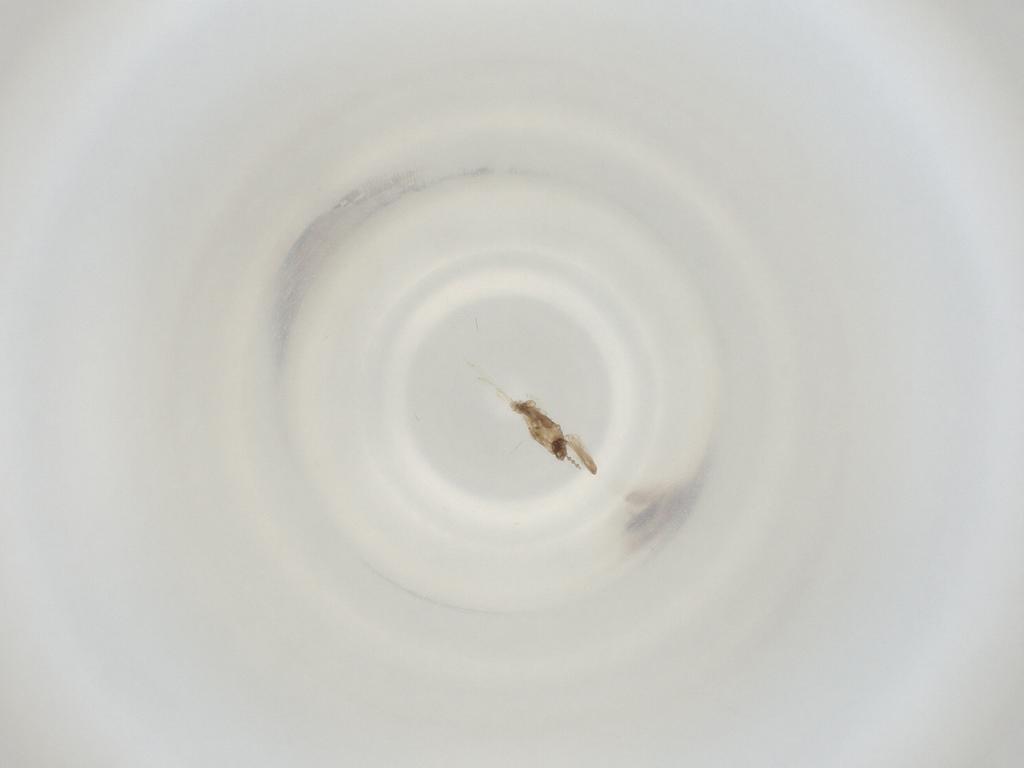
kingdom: Animalia
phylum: Arthropoda
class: Insecta
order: Diptera
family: Cecidomyiidae
